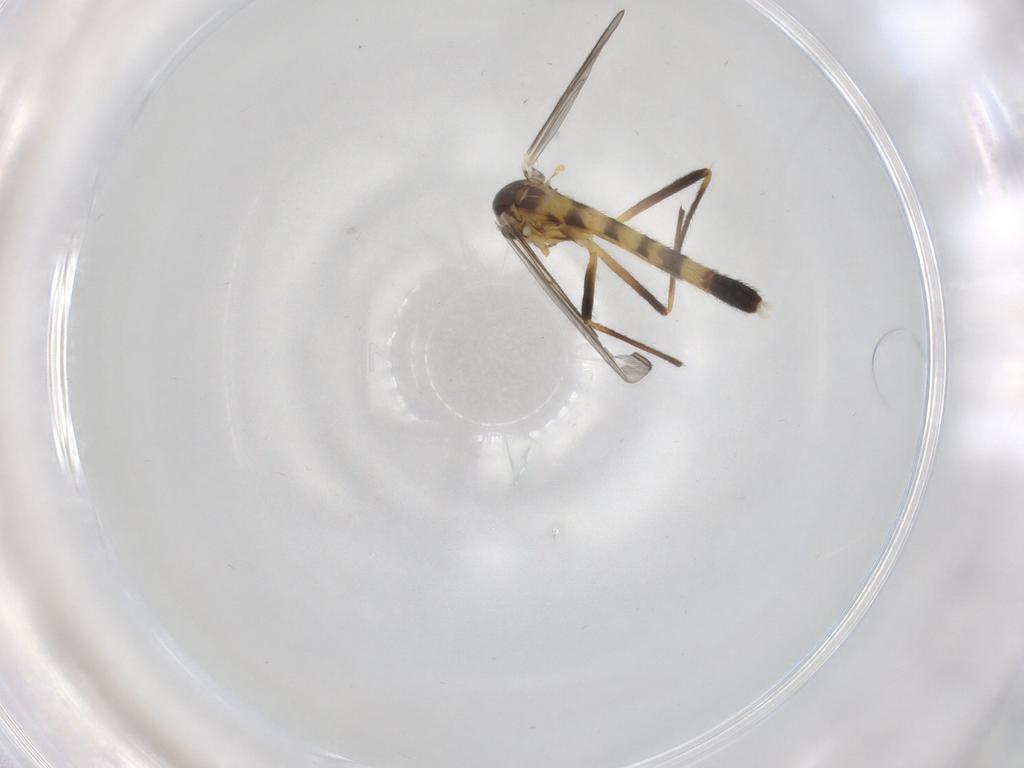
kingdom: Animalia
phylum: Arthropoda
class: Insecta
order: Diptera
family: Chironomidae
